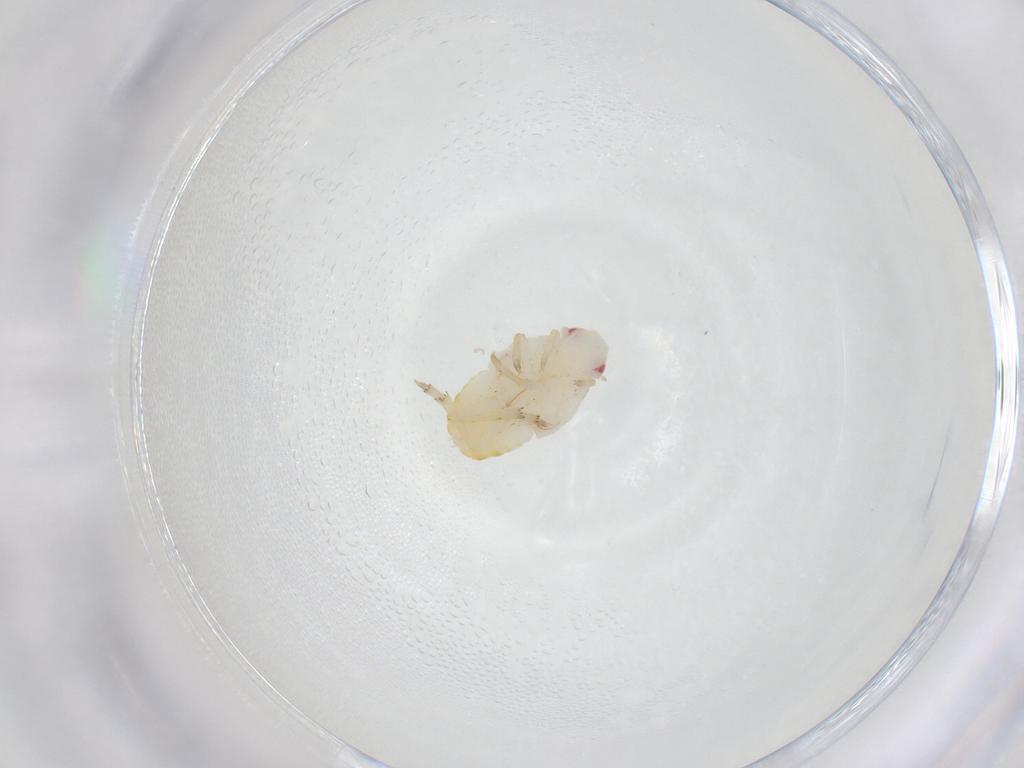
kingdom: Animalia
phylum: Arthropoda
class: Insecta
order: Hemiptera
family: Flatidae
